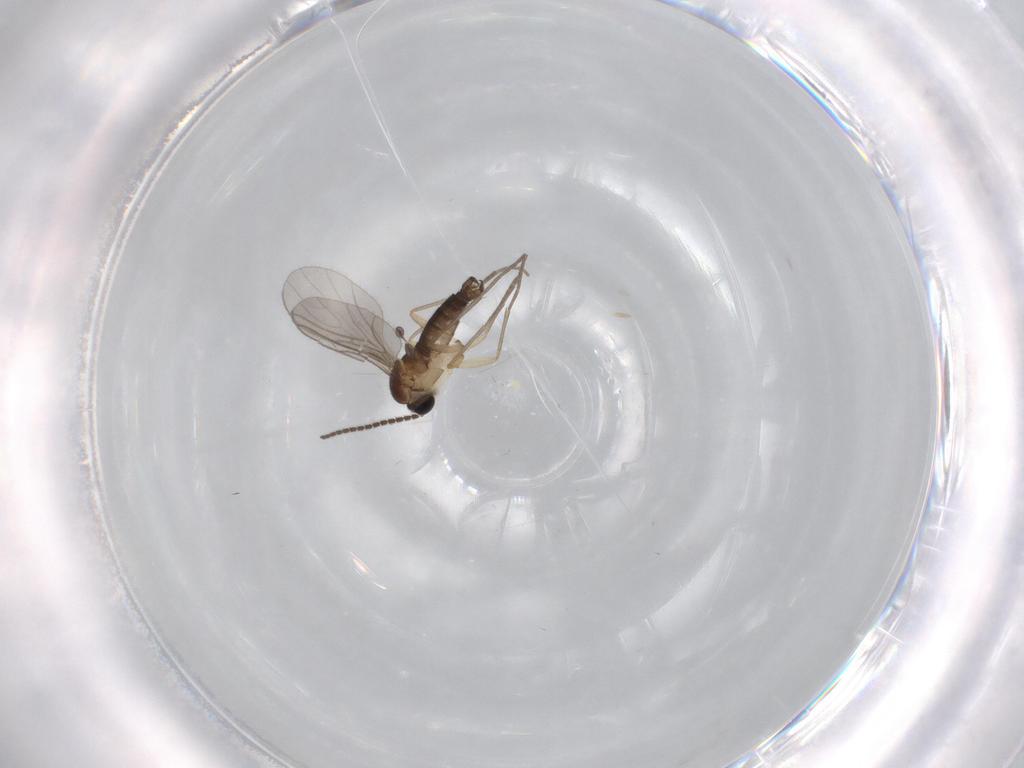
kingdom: Animalia
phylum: Arthropoda
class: Insecta
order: Diptera
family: Sciaridae
